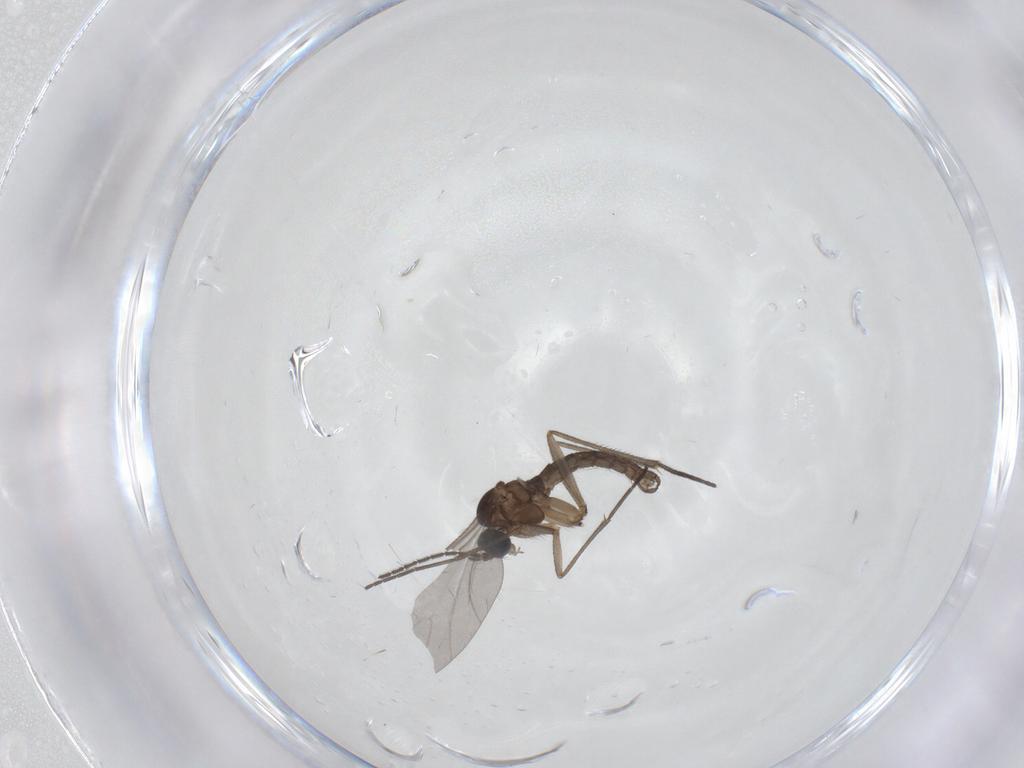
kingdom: Animalia
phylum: Arthropoda
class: Insecta
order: Diptera
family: Sciaridae
